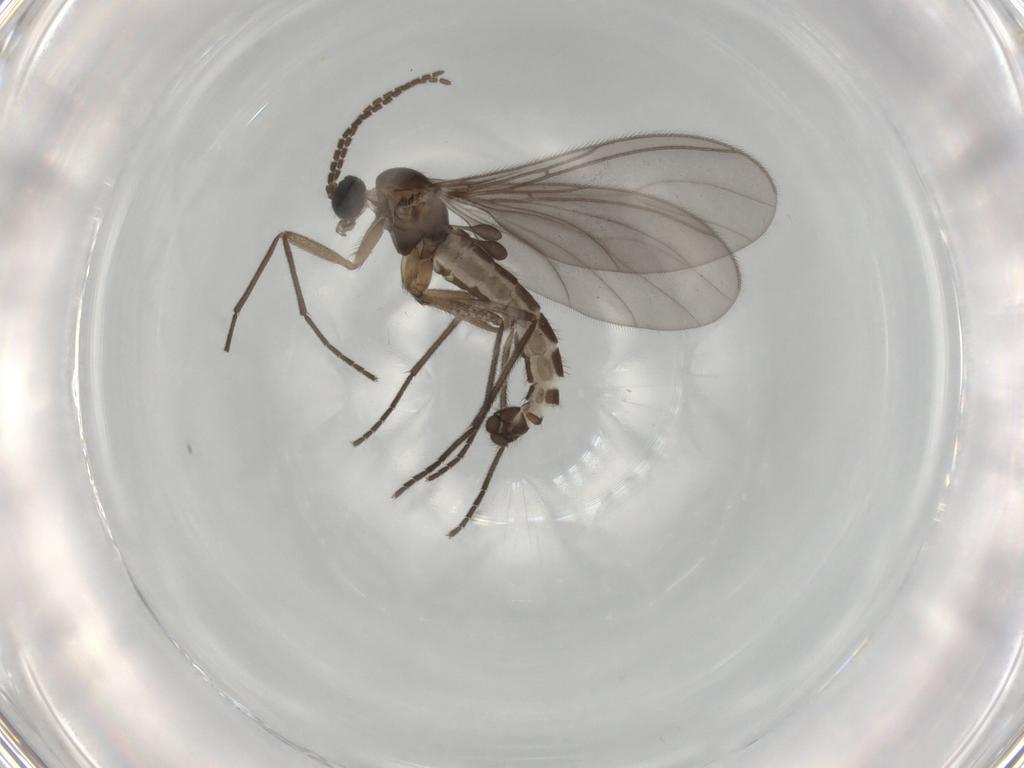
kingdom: Animalia
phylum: Arthropoda
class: Insecta
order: Diptera
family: Sciaridae
